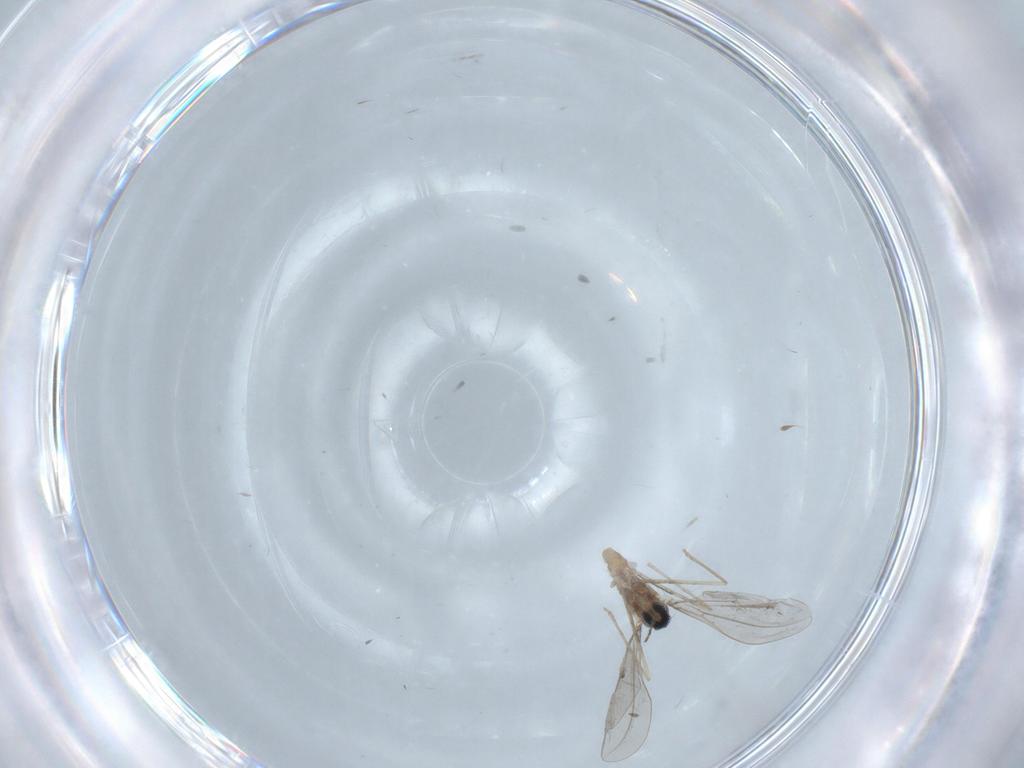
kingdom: Animalia
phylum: Arthropoda
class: Insecta
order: Diptera
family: Cecidomyiidae
